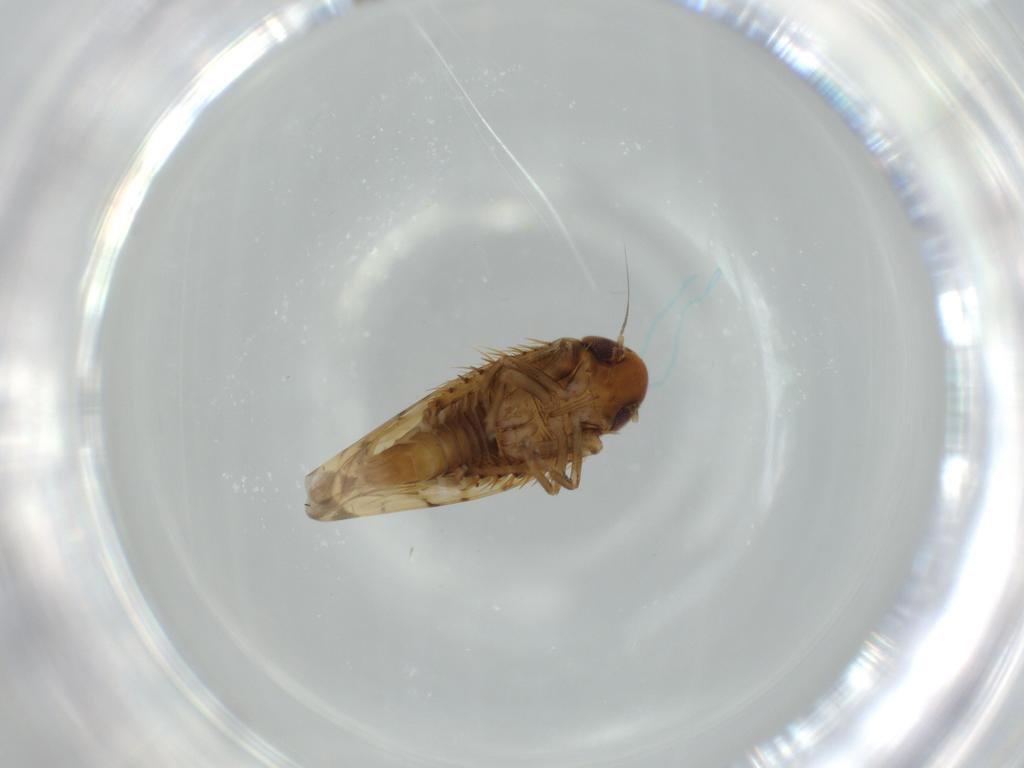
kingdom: Animalia
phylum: Arthropoda
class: Insecta
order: Hemiptera
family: Cicadellidae
